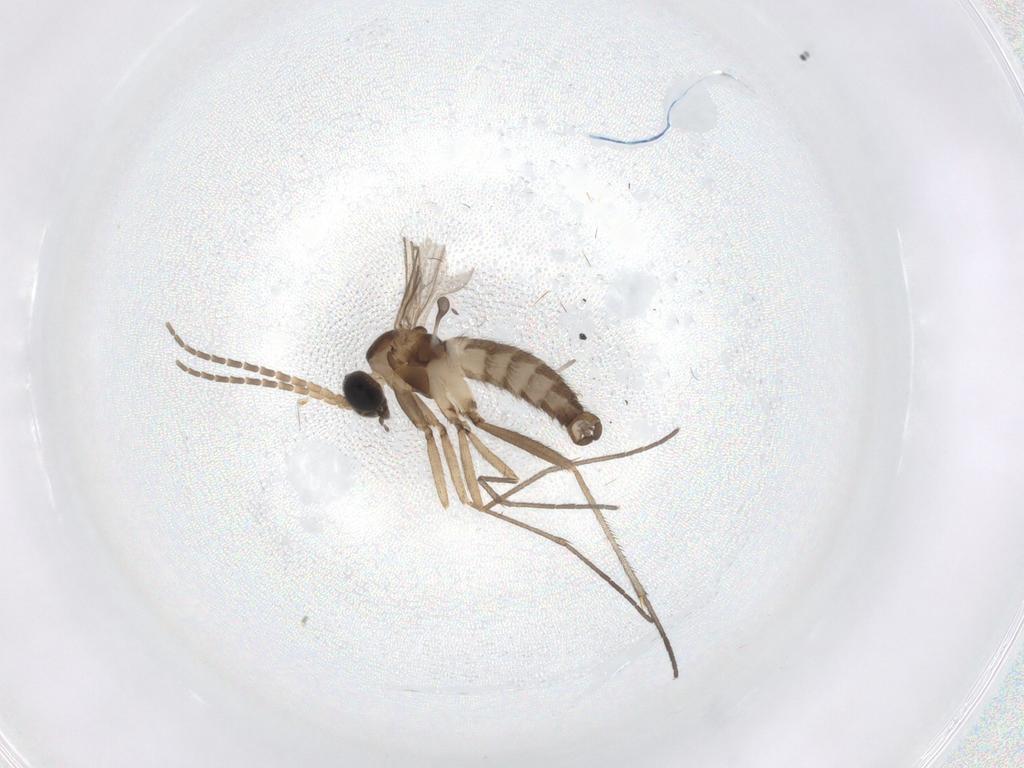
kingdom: Animalia
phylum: Arthropoda
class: Insecta
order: Diptera
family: Sciaridae
